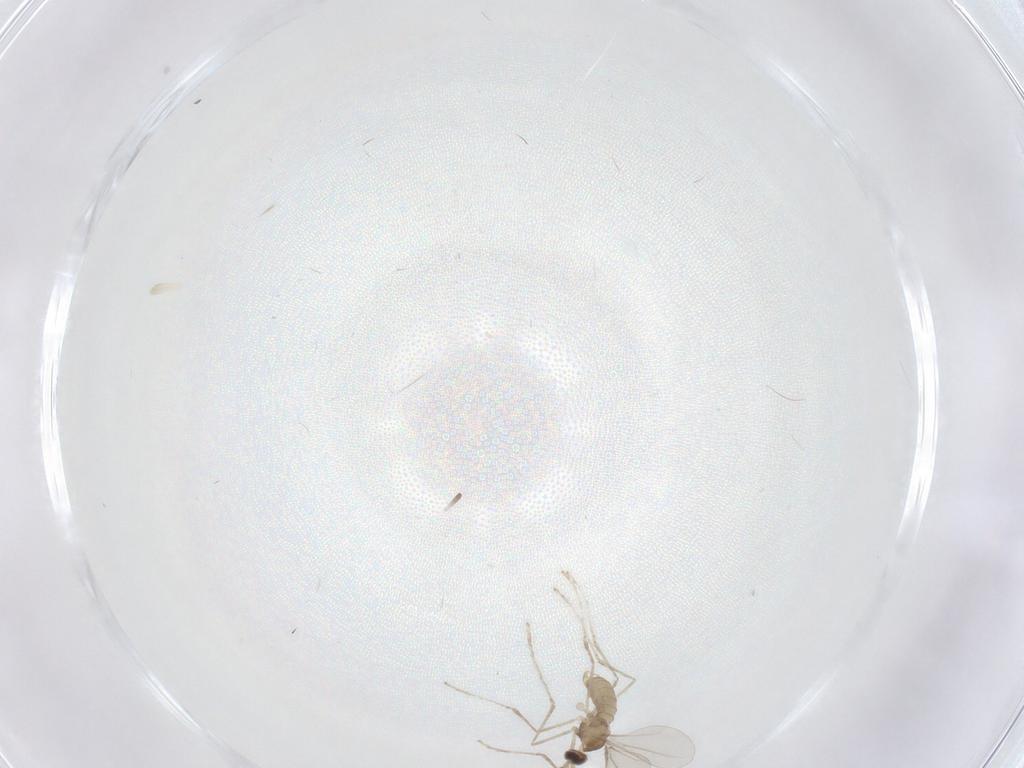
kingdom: Animalia
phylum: Arthropoda
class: Insecta
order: Diptera
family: Cecidomyiidae
